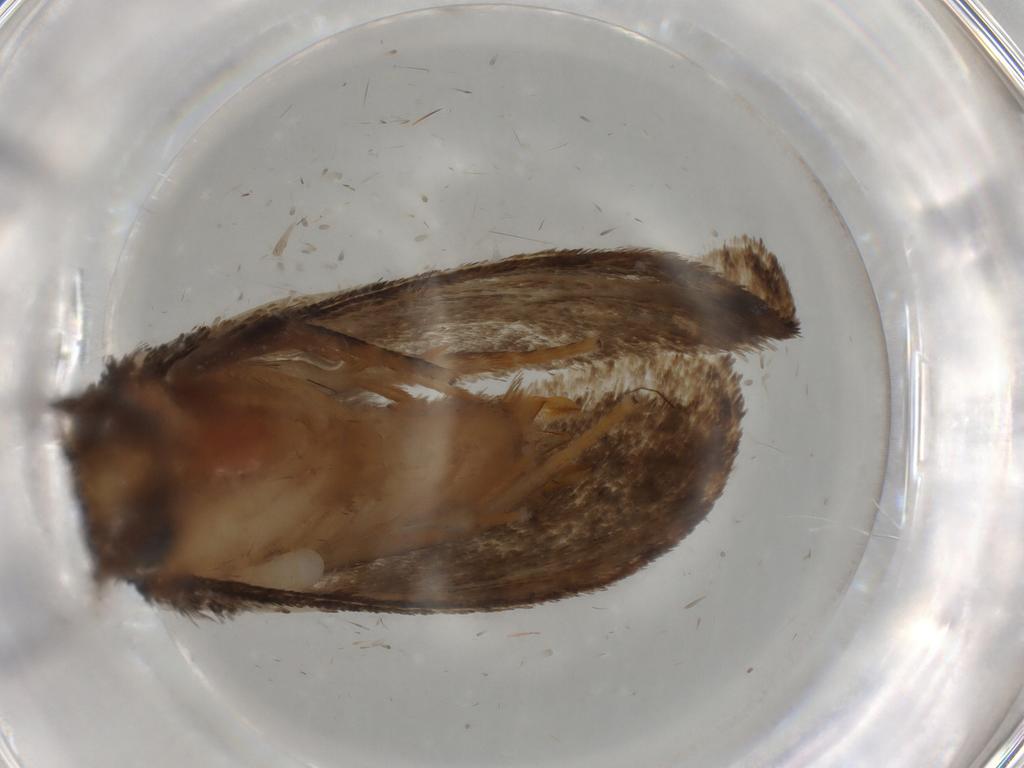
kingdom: Animalia
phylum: Arthropoda
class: Insecta
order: Lepidoptera
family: Tineidae
